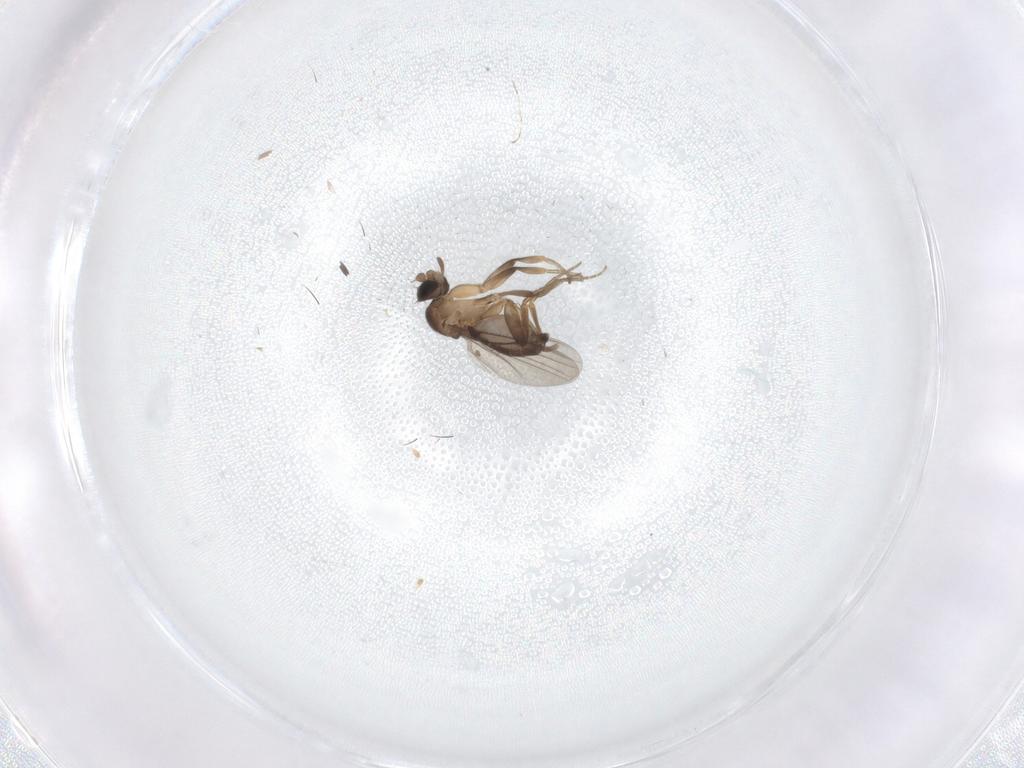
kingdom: Animalia
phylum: Arthropoda
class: Insecta
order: Diptera
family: Phoridae
